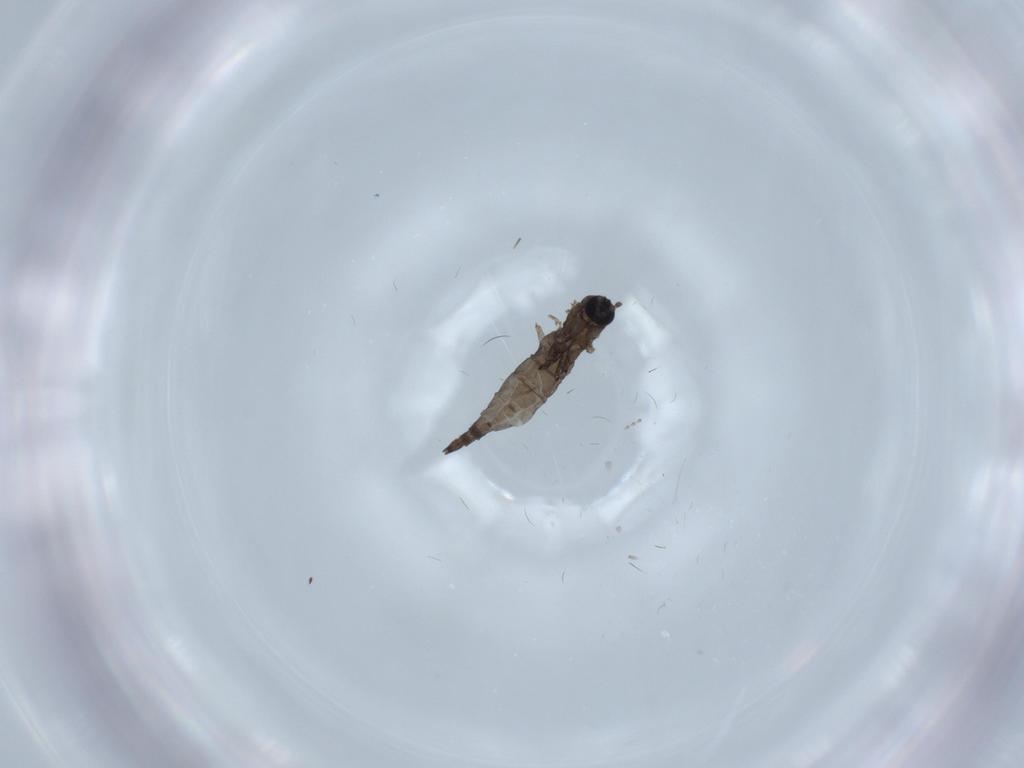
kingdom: Animalia
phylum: Arthropoda
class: Insecta
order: Diptera
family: Sciaridae
